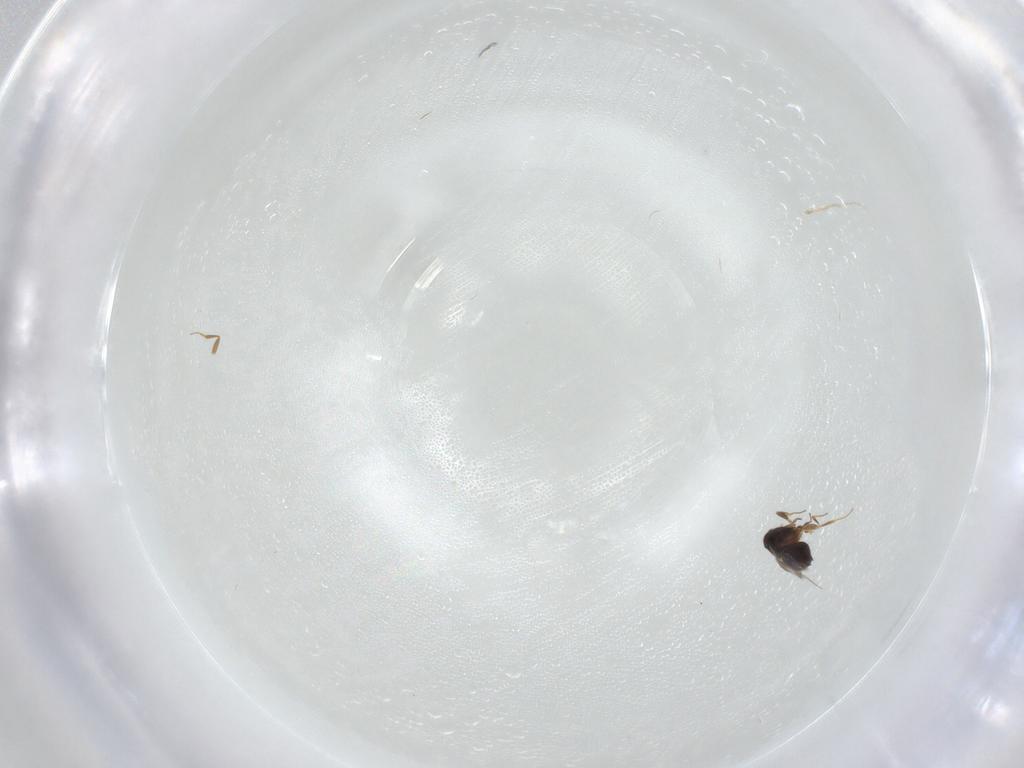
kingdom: Animalia
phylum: Arthropoda
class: Insecta
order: Hymenoptera
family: Ceraphronidae
